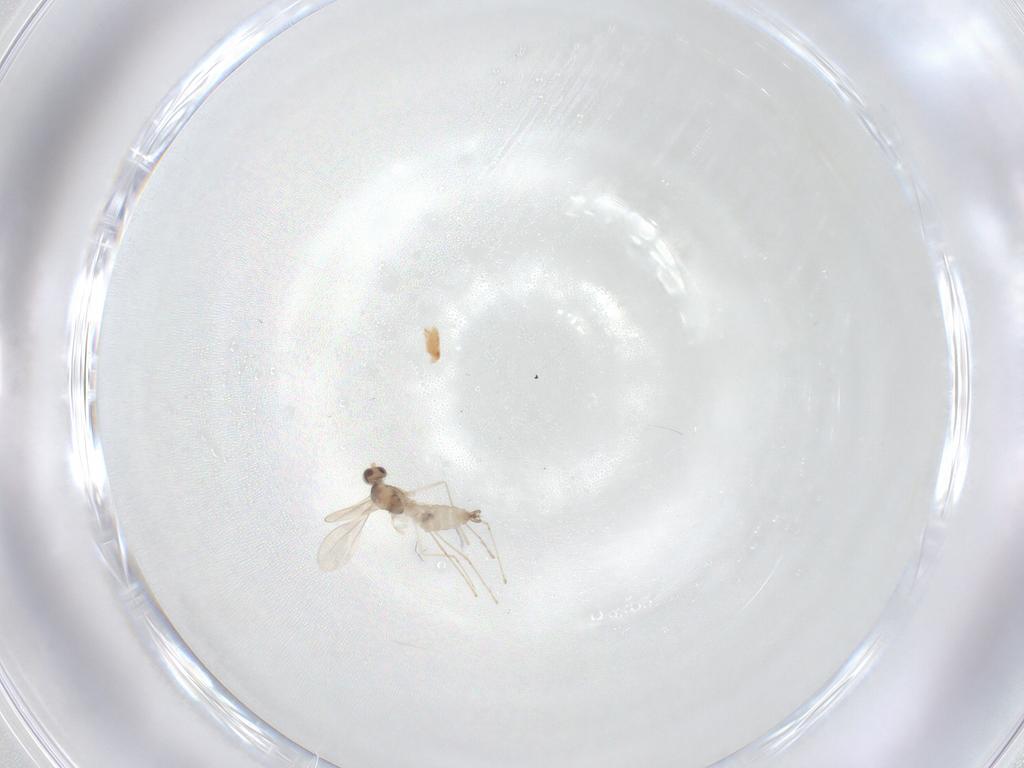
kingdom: Animalia
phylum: Arthropoda
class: Insecta
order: Diptera
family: Cecidomyiidae
